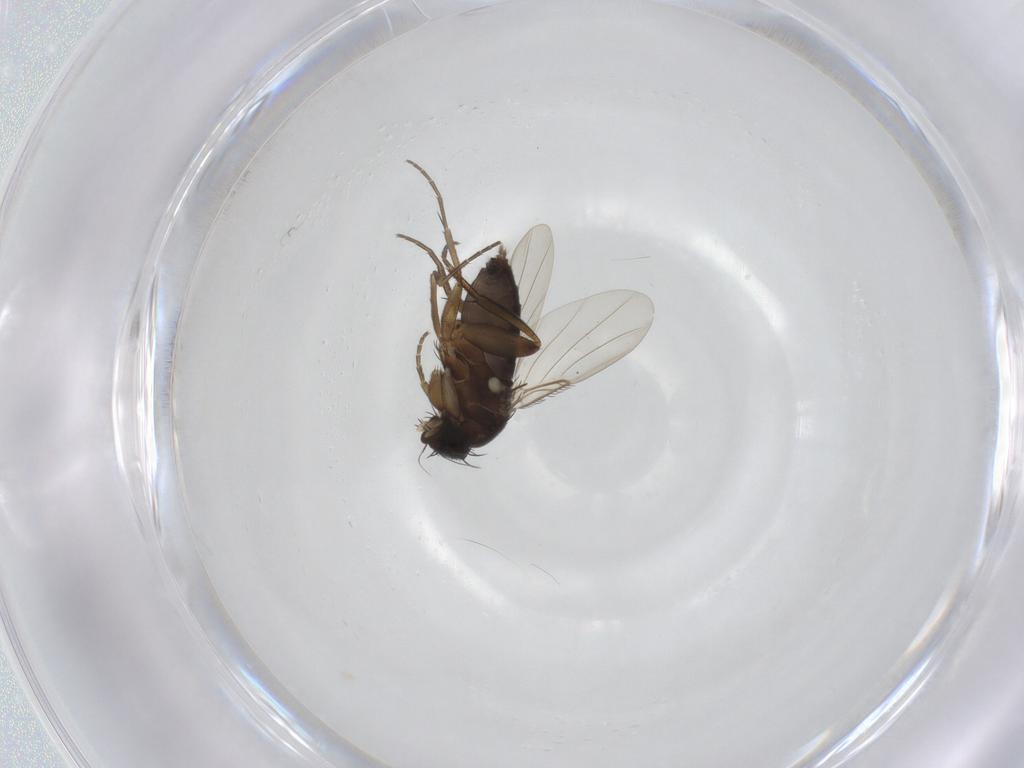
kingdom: Animalia
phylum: Arthropoda
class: Insecta
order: Diptera
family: Phoridae
